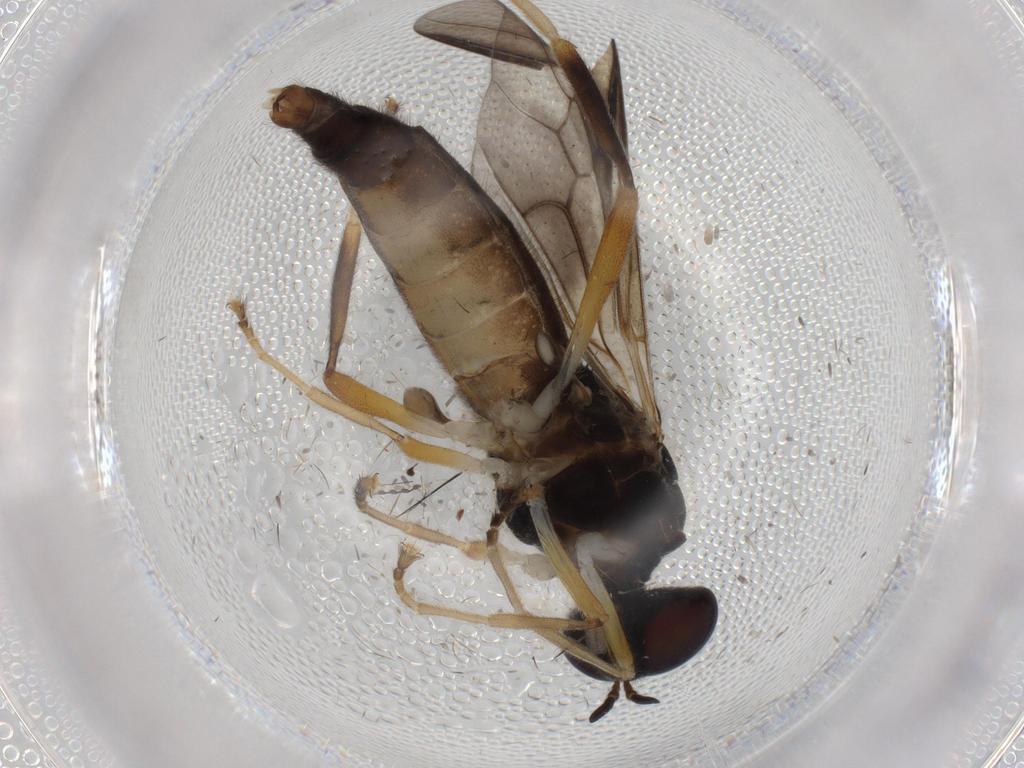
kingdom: Animalia
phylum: Arthropoda
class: Insecta
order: Diptera
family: Stratiomyidae
